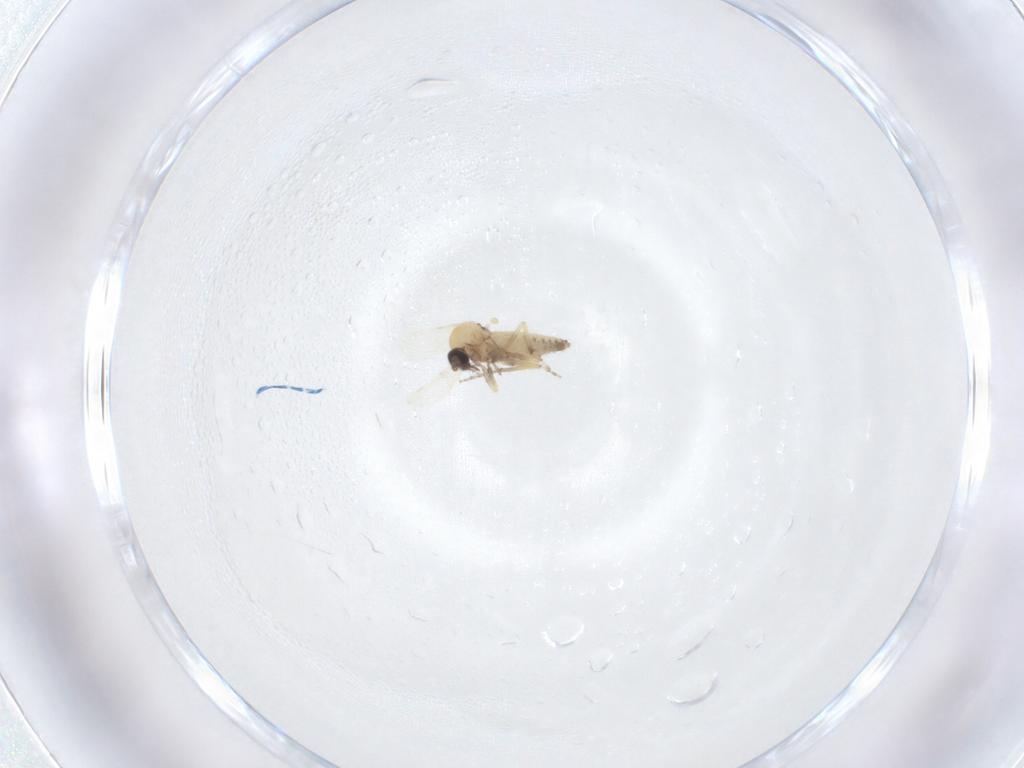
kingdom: Animalia
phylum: Arthropoda
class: Insecta
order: Diptera
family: Ceratopogonidae
